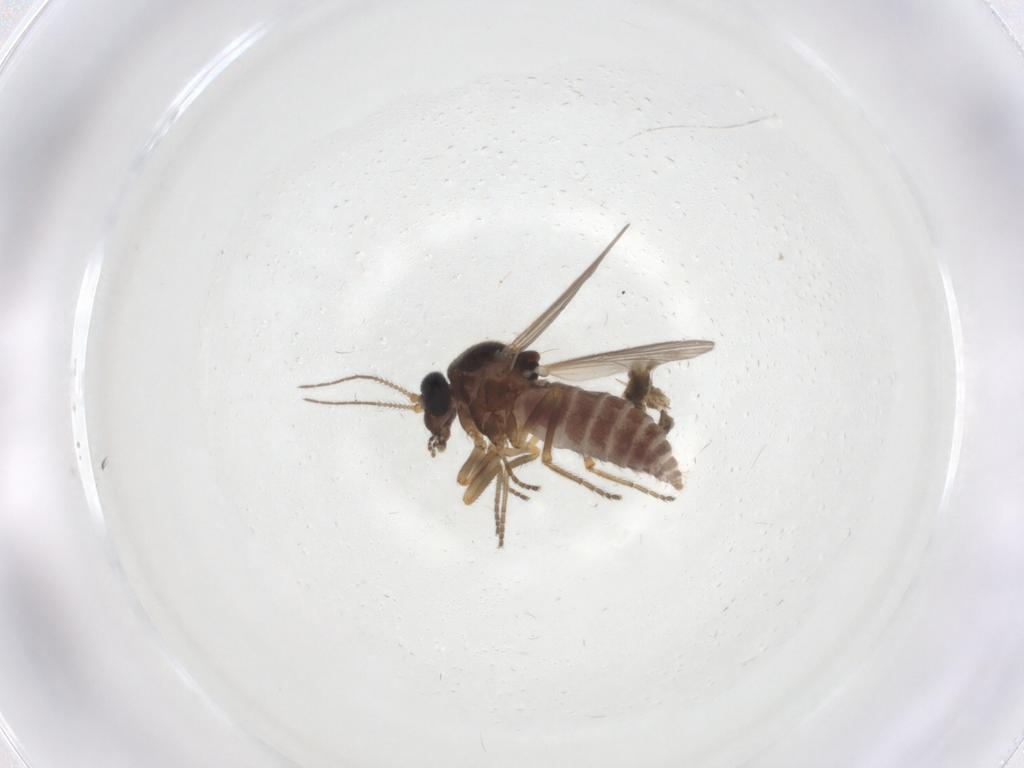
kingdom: Animalia
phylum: Arthropoda
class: Insecta
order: Diptera
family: Ceratopogonidae
